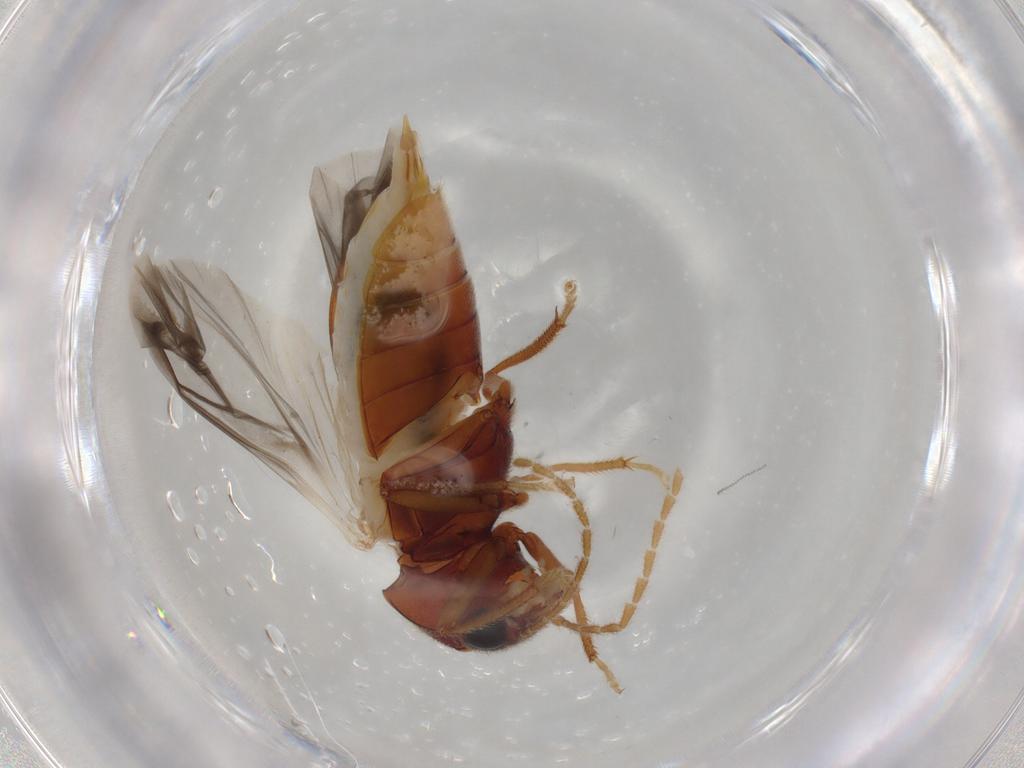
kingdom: Animalia
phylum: Arthropoda
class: Insecta
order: Coleoptera
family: Ptilodactylidae
